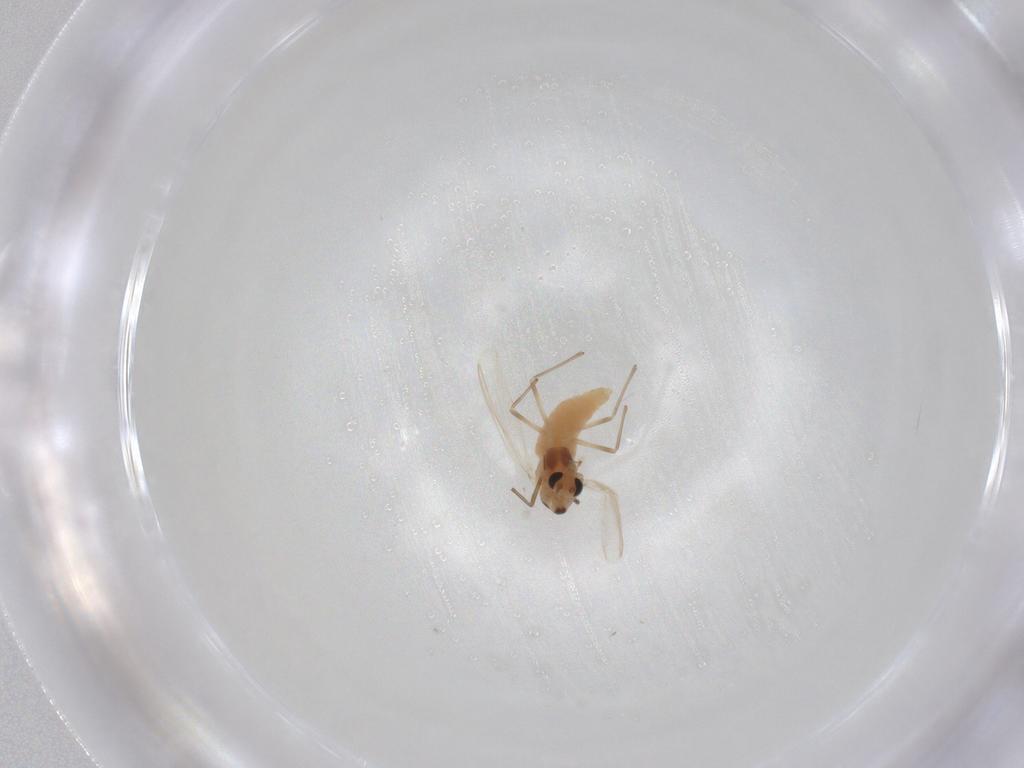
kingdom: Animalia
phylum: Arthropoda
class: Insecta
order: Diptera
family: Chironomidae
